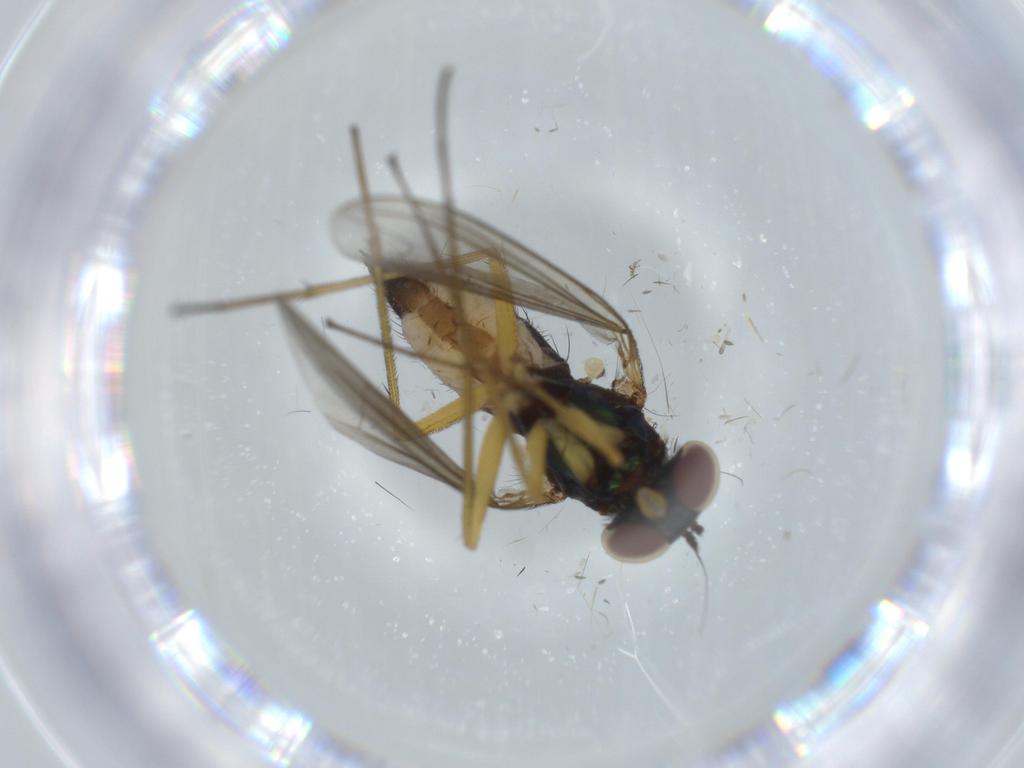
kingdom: Animalia
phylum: Arthropoda
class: Insecta
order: Diptera
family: Dolichopodidae
